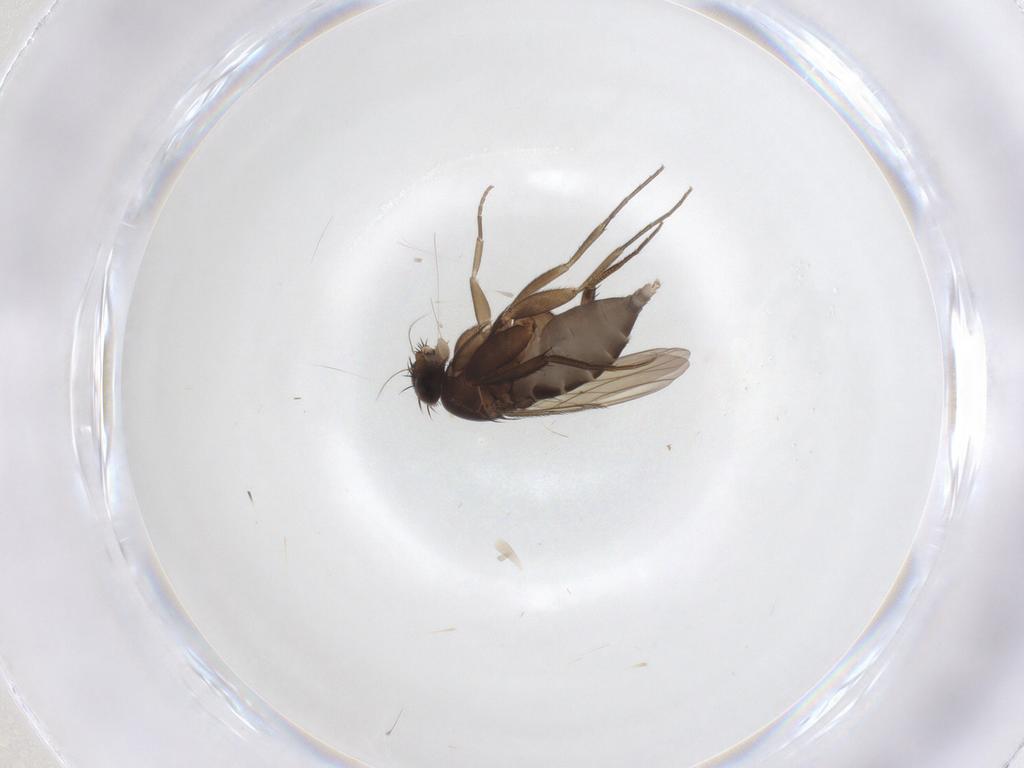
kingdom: Animalia
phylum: Arthropoda
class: Insecta
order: Diptera
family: Phoridae
